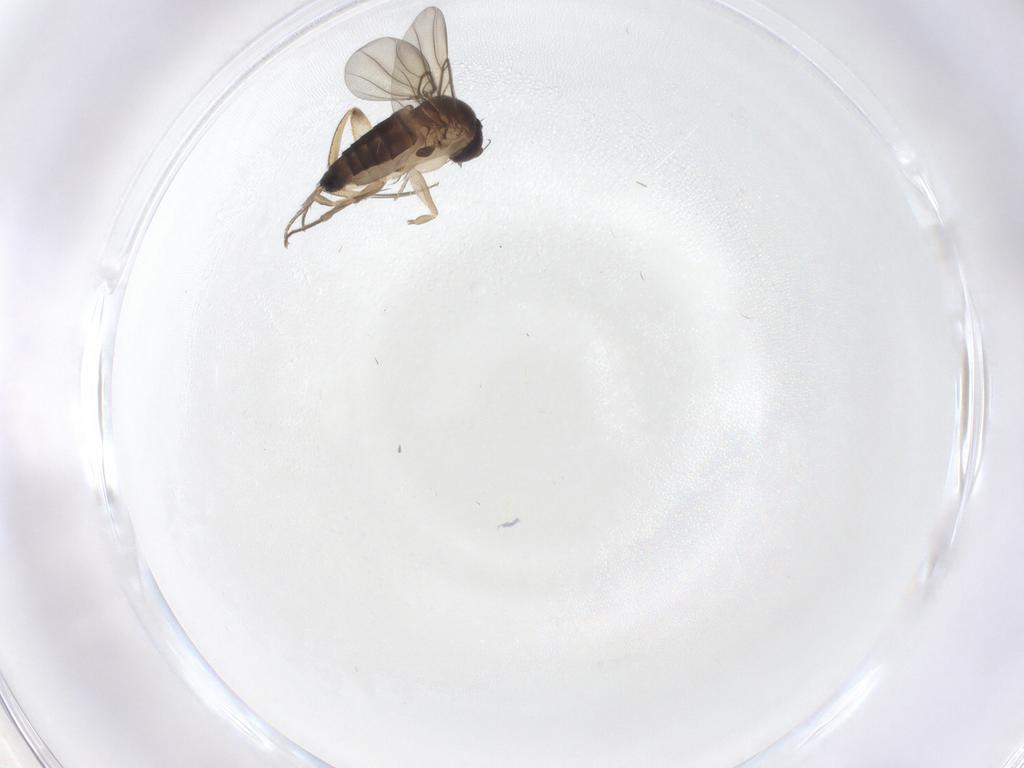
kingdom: Animalia
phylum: Arthropoda
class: Insecta
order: Diptera
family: Phoridae
